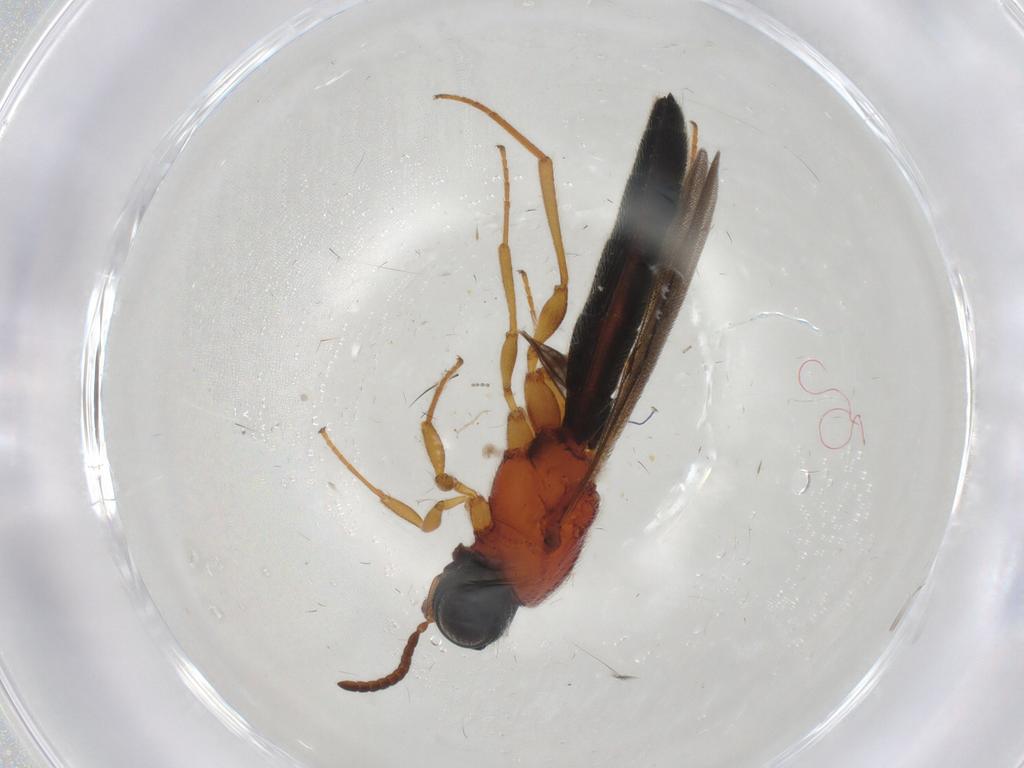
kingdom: Animalia
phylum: Arthropoda
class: Insecta
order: Hymenoptera
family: Scelionidae
